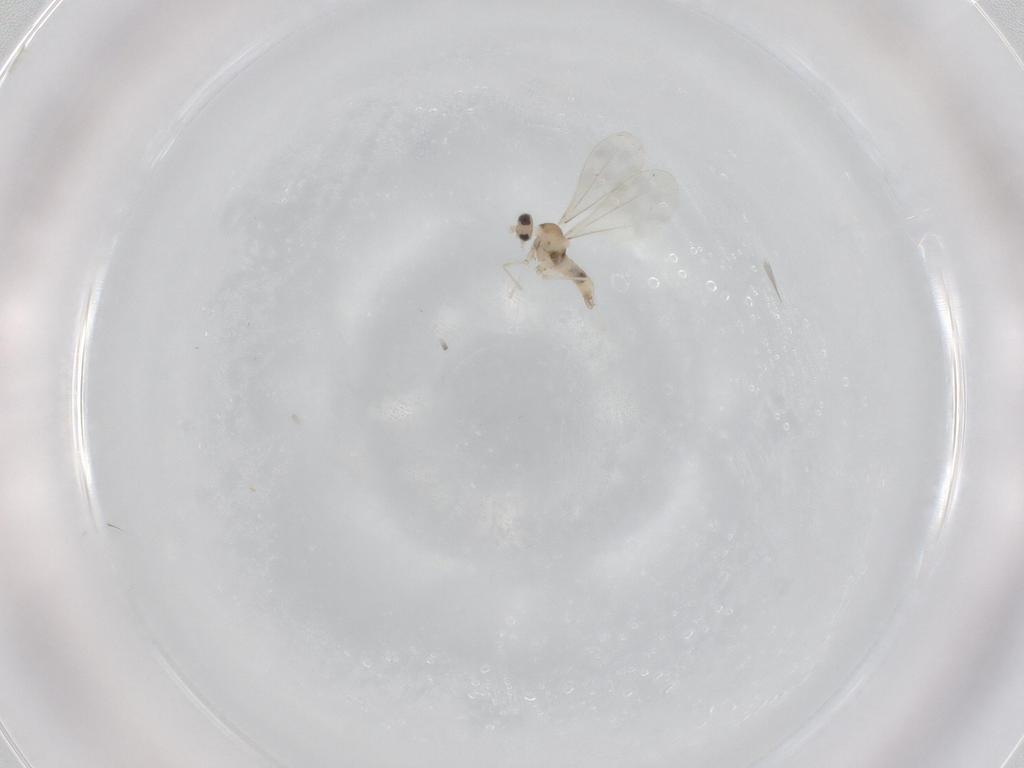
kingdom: Animalia
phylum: Arthropoda
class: Insecta
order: Diptera
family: Cecidomyiidae
